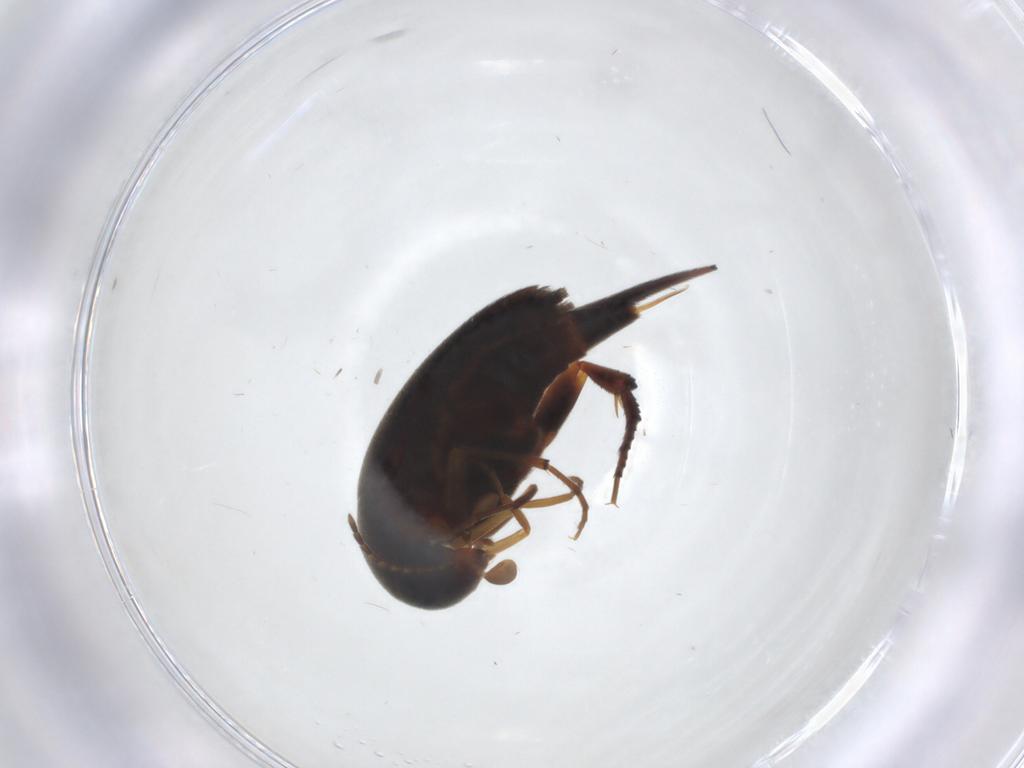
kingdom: Animalia
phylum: Arthropoda
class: Insecta
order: Coleoptera
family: Mordellidae
